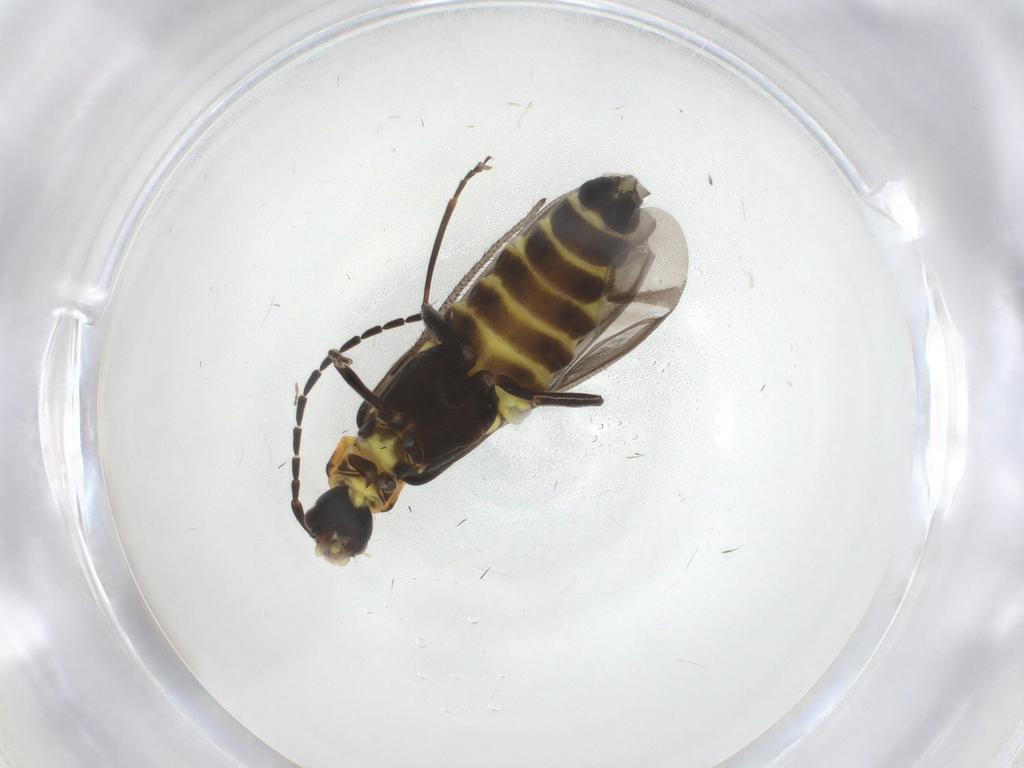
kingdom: Animalia
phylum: Arthropoda
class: Insecta
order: Coleoptera
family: Cantharidae
